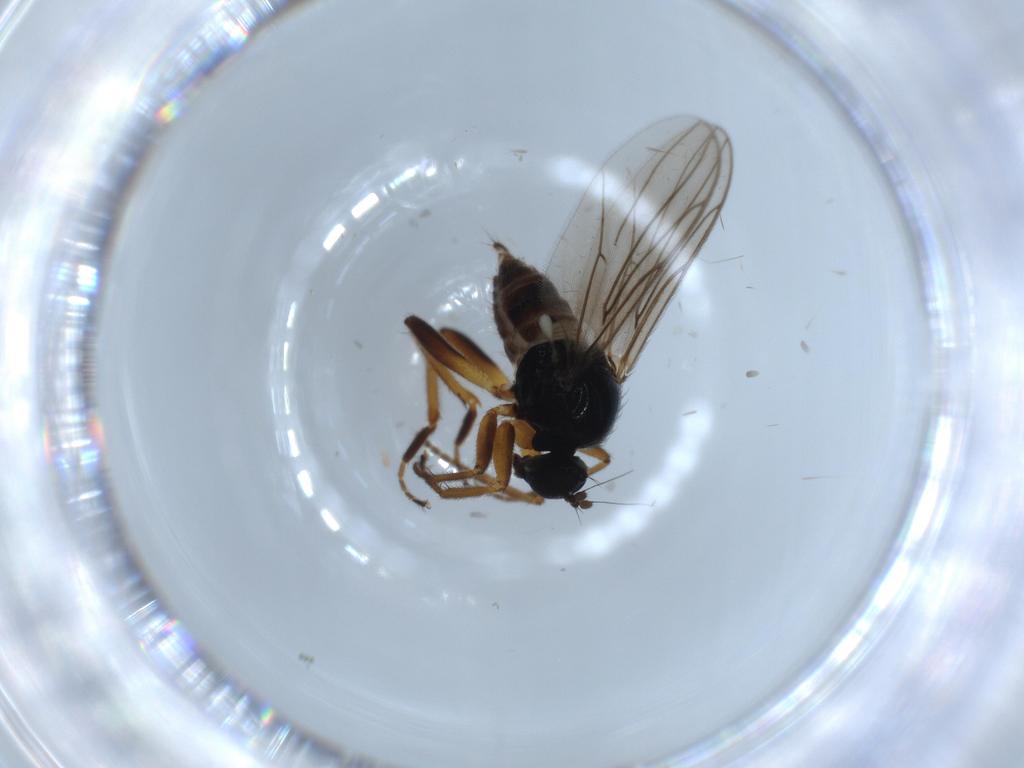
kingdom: Animalia
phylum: Arthropoda
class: Insecta
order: Diptera
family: Hybotidae
